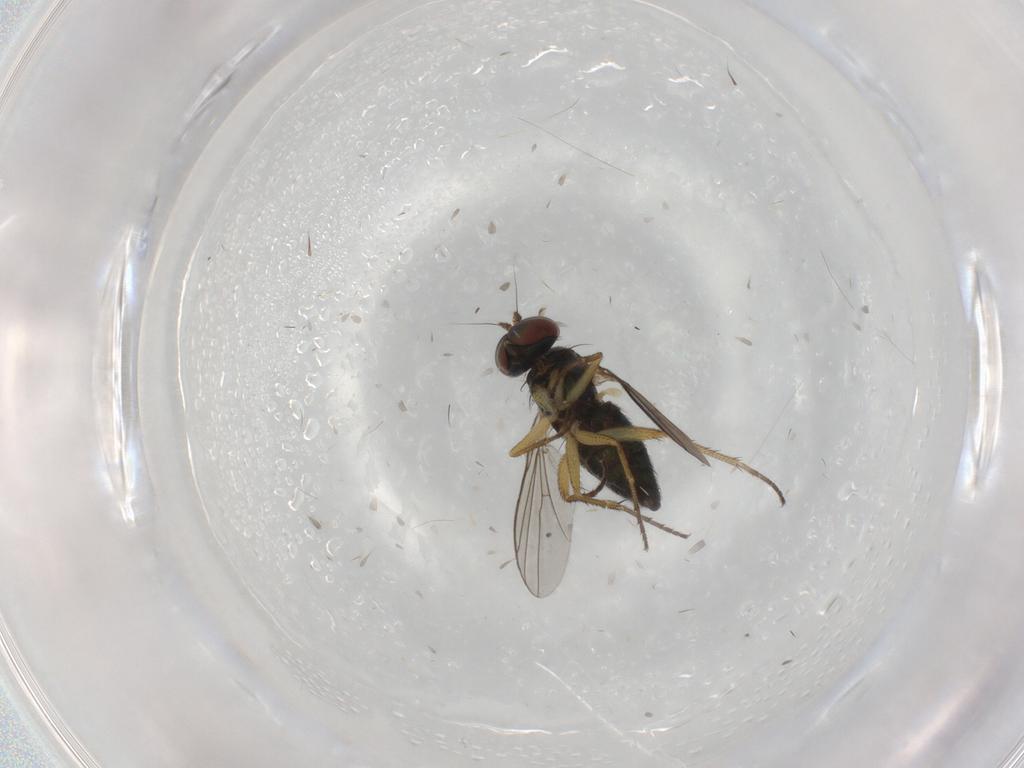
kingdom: Animalia
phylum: Arthropoda
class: Insecta
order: Diptera
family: Dolichopodidae
